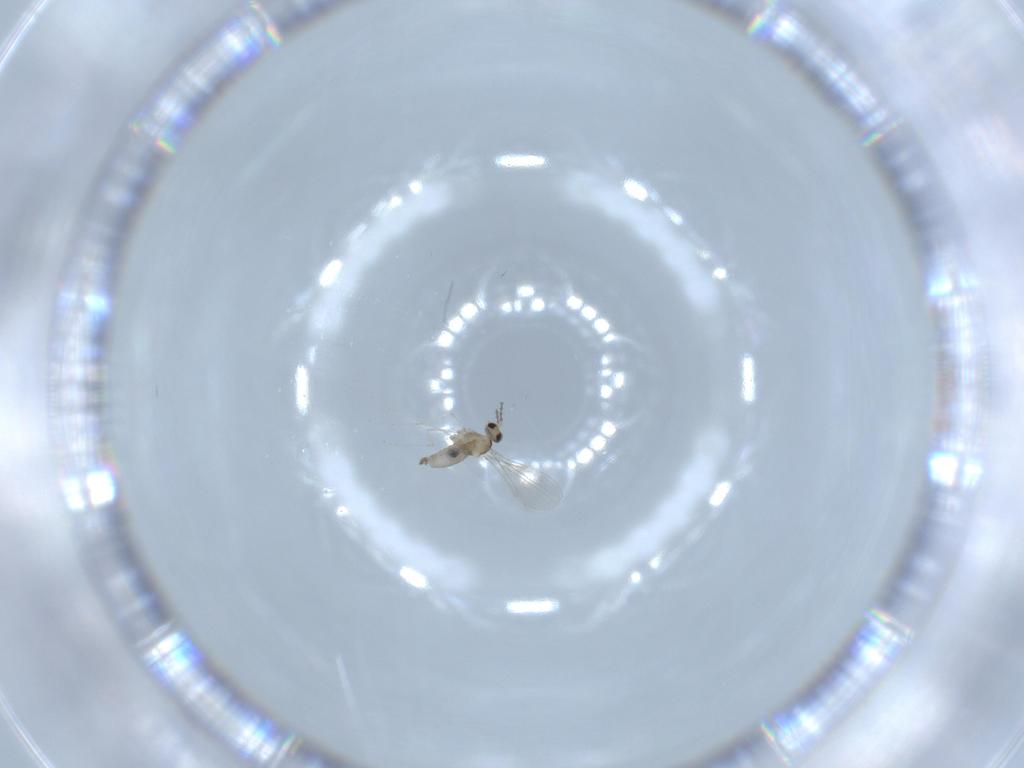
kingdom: Animalia
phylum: Arthropoda
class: Insecta
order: Diptera
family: Cecidomyiidae
